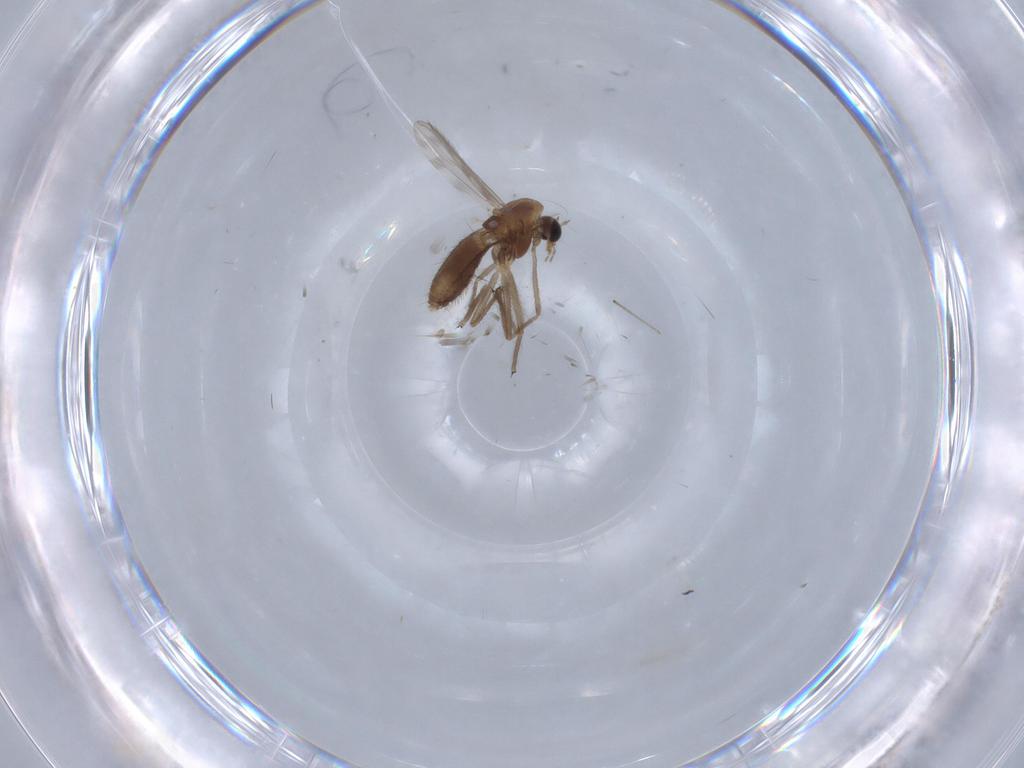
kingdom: Animalia
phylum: Arthropoda
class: Insecta
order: Diptera
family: Chironomidae
